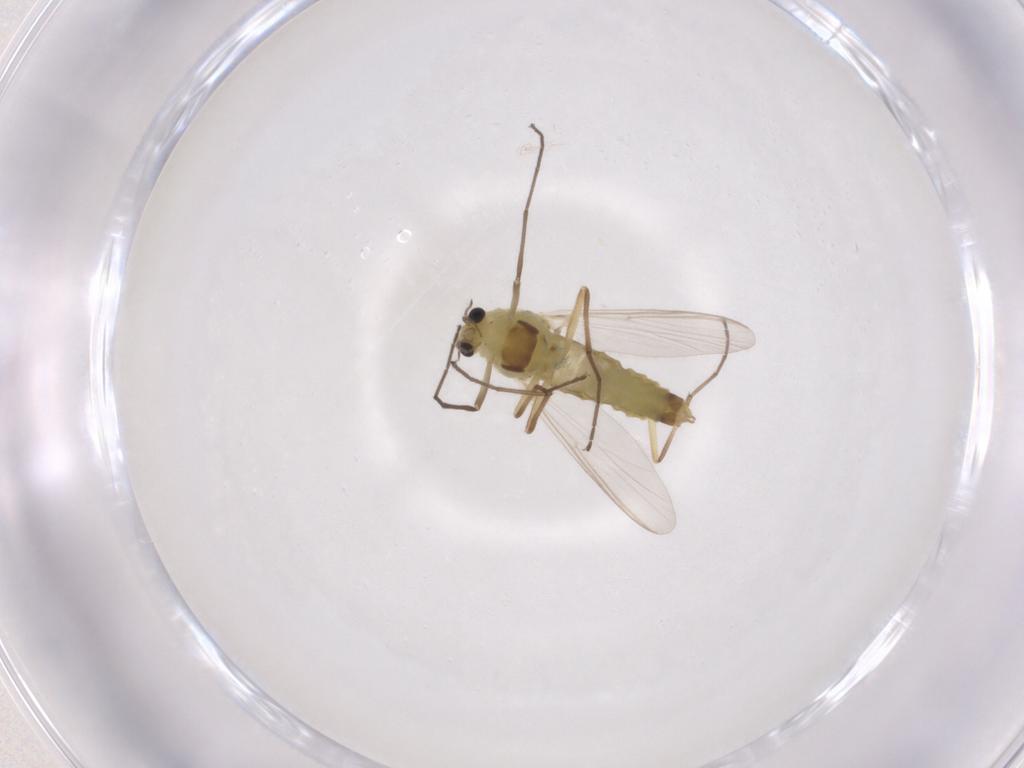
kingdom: Animalia
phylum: Arthropoda
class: Insecta
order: Diptera
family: Chironomidae
